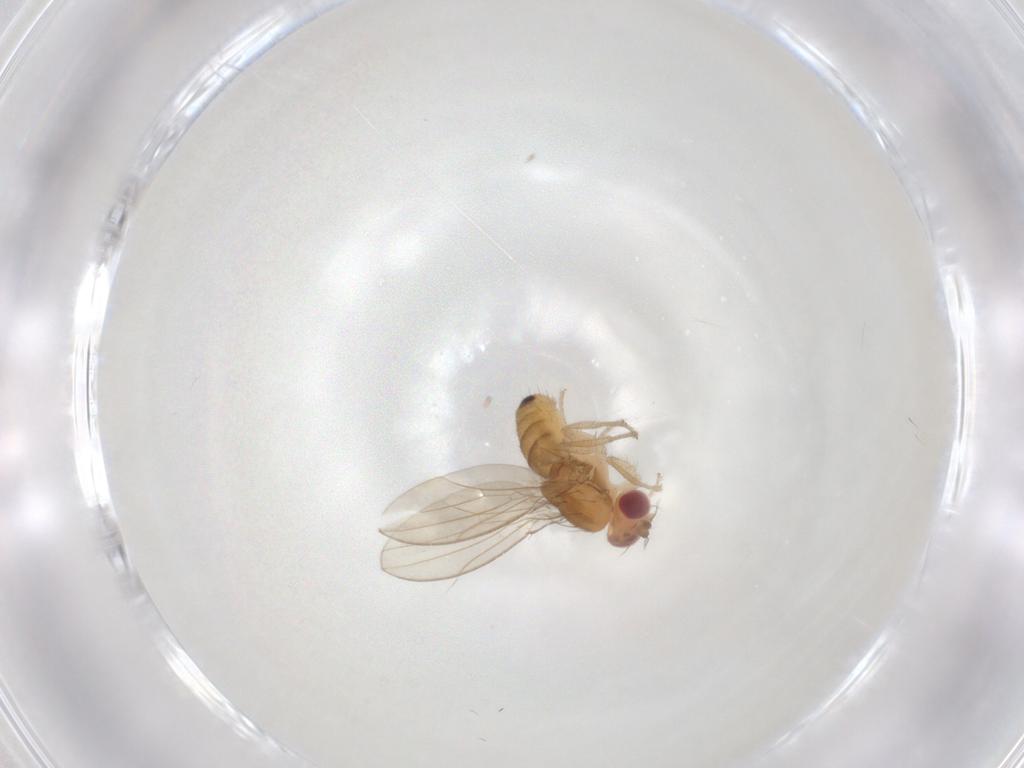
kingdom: Animalia
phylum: Arthropoda
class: Insecta
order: Diptera
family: Drosophilidae
